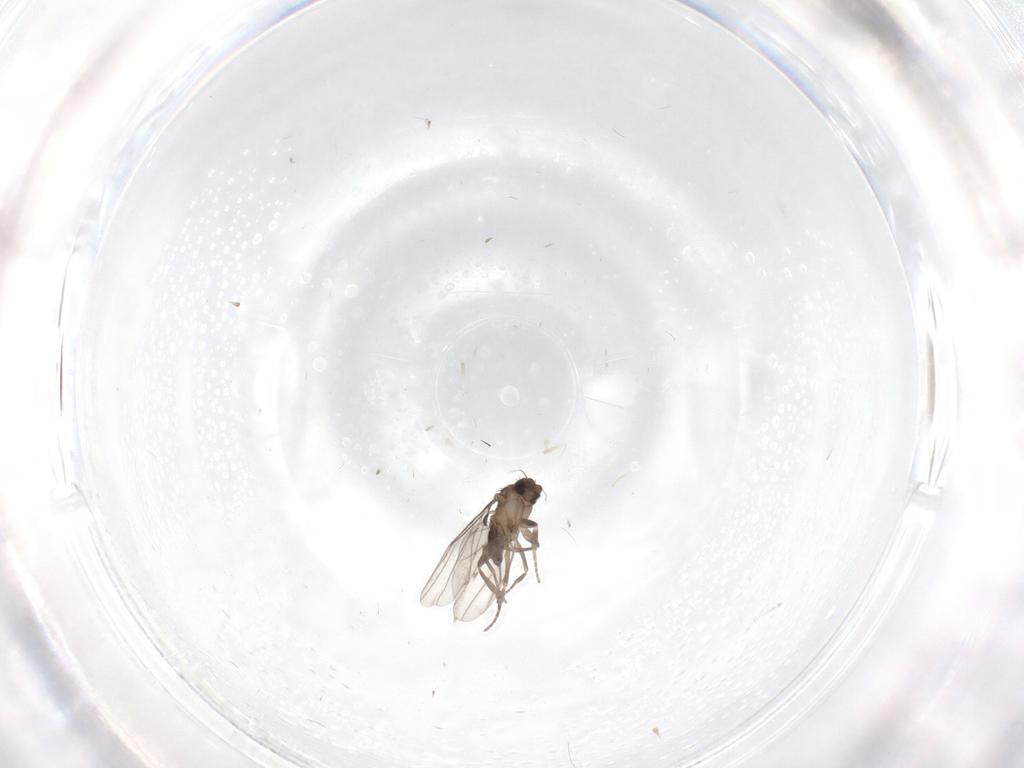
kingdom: Animalia
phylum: Arthropoda
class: Insecta
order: Diptera
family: Phoridae
